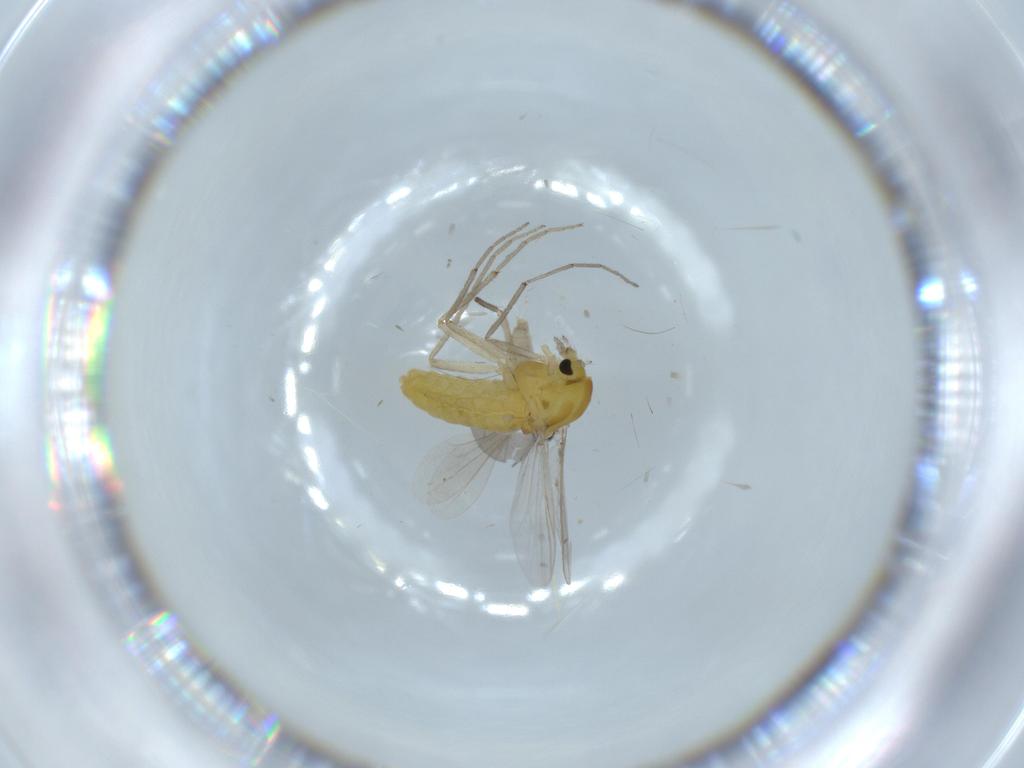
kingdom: Animalia
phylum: Arthropoda
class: Insecta
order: Diptera
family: Chironomidae
